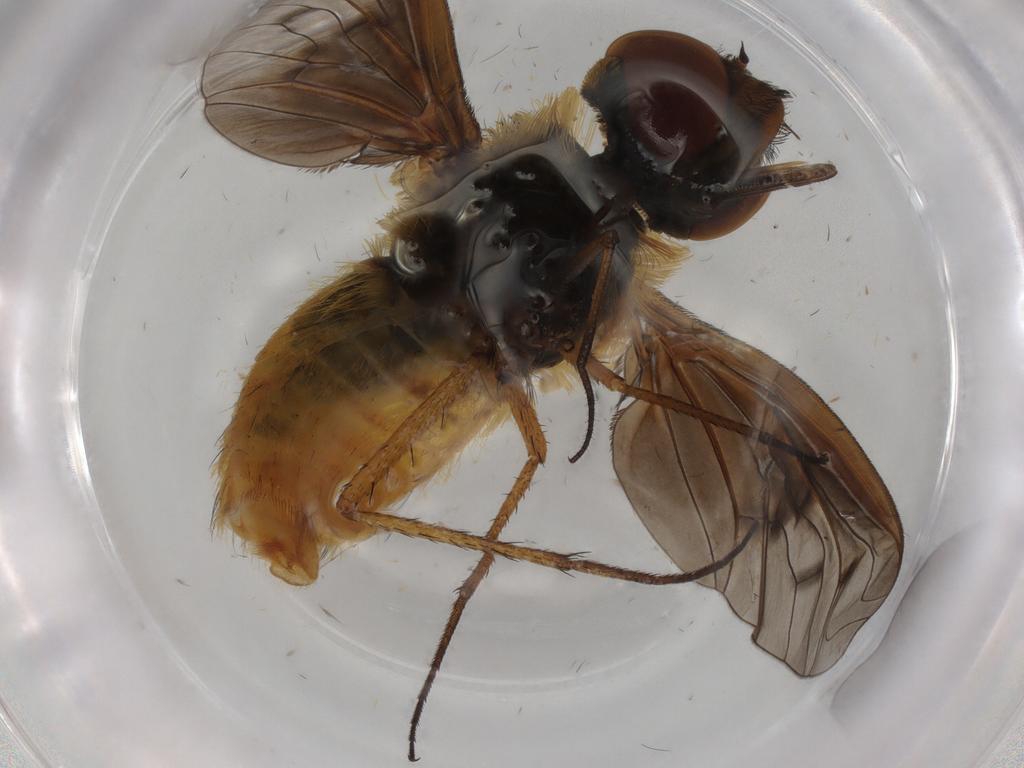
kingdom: Animalia
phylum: Arthropoda
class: Insecta
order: Diptera
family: Bombyliidae
